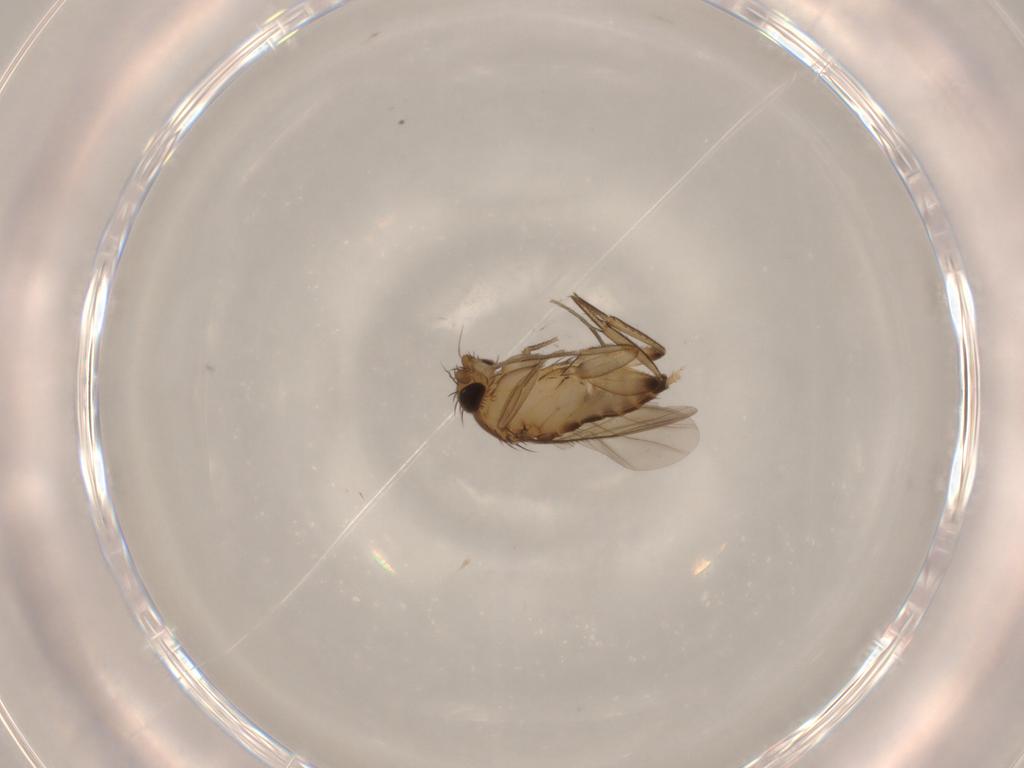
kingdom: Animalia
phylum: Arthropoda
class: Insecta
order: Diptera
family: Phoridae
